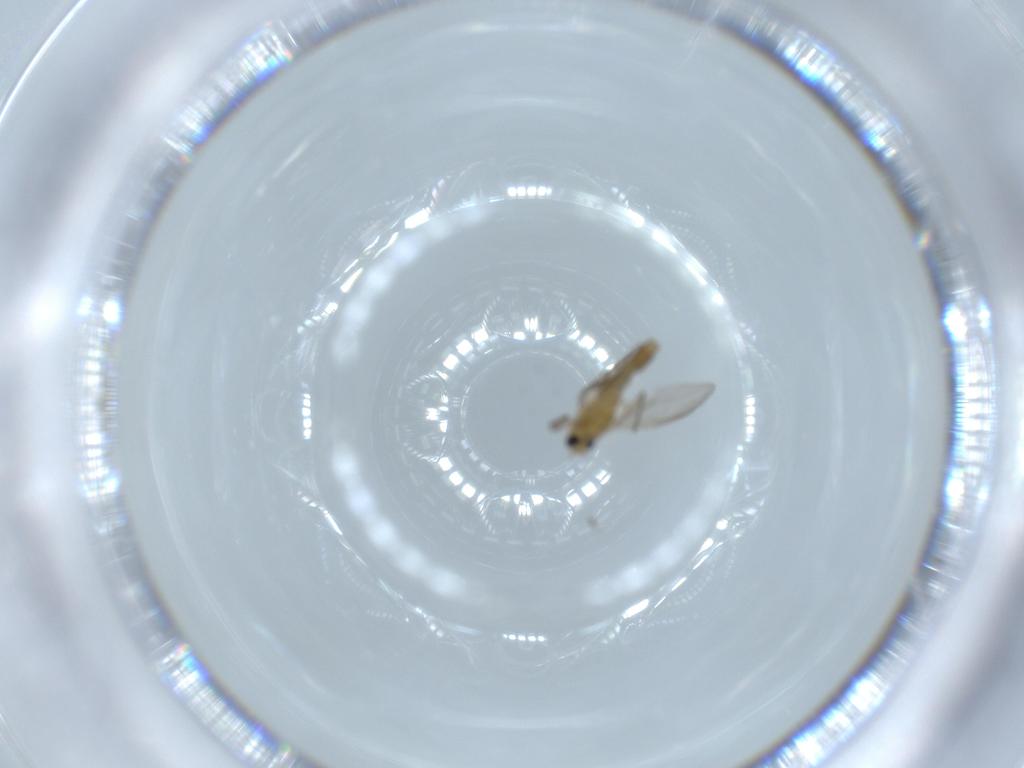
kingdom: Animalia
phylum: Arthropoda
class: Insecta
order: Diptera
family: Chironomidae
